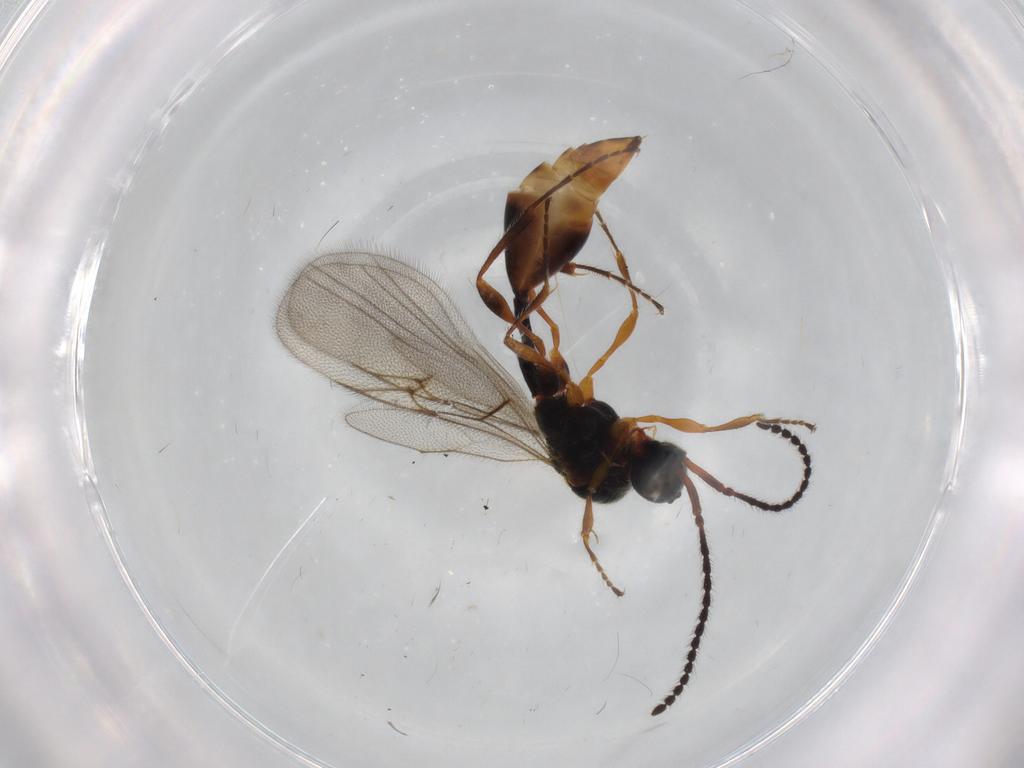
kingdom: Animalia
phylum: Arthropoda
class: Insecta
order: Hymenoptera
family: Diapriidae
